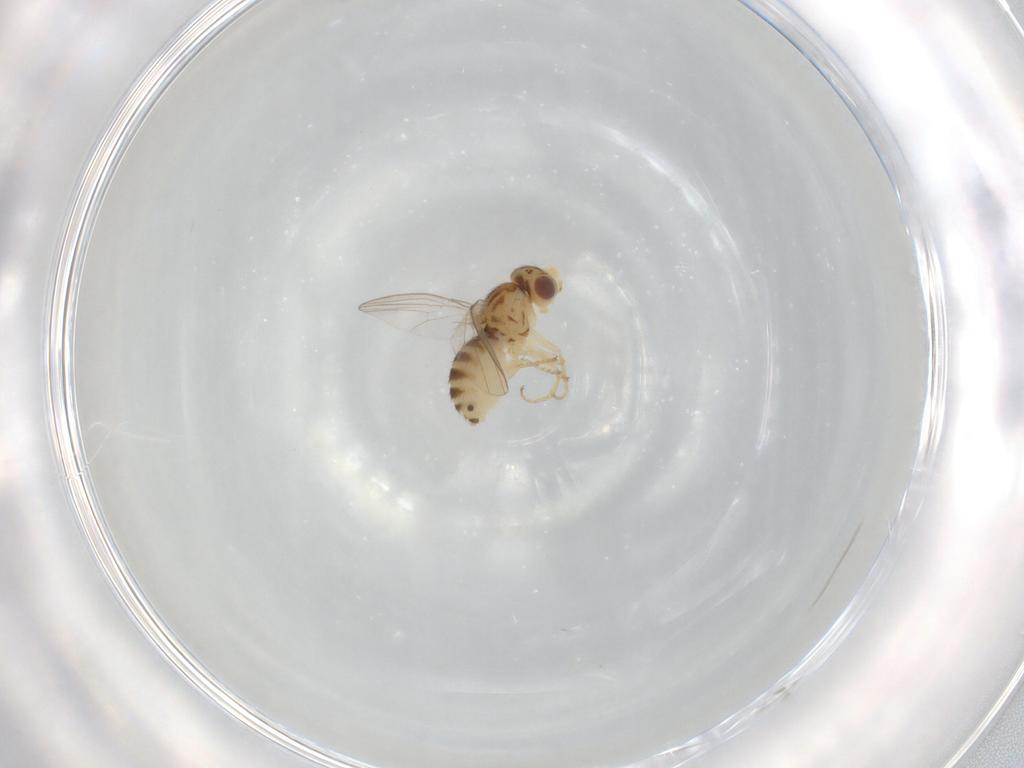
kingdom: Animalia
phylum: Arthropoda
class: Insecta
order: Diptera
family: Chyromyidae
